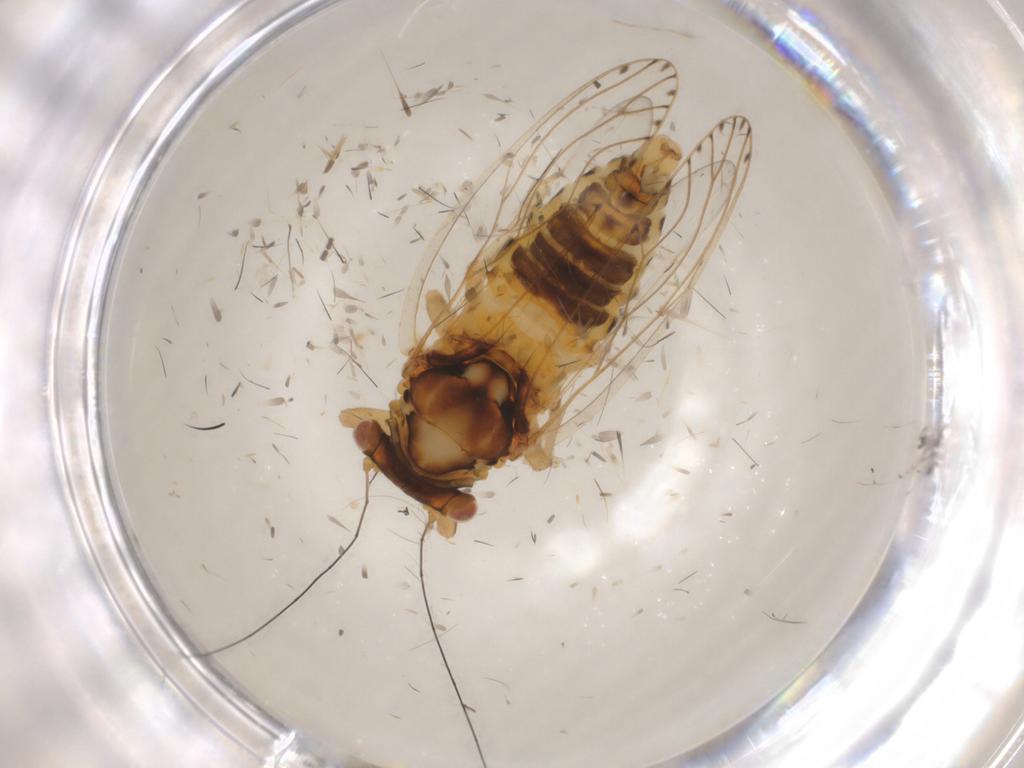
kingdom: Animalia
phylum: Arthropoda
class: Insecta
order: Hemiptera
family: Psylloidea_incertae_sedis
